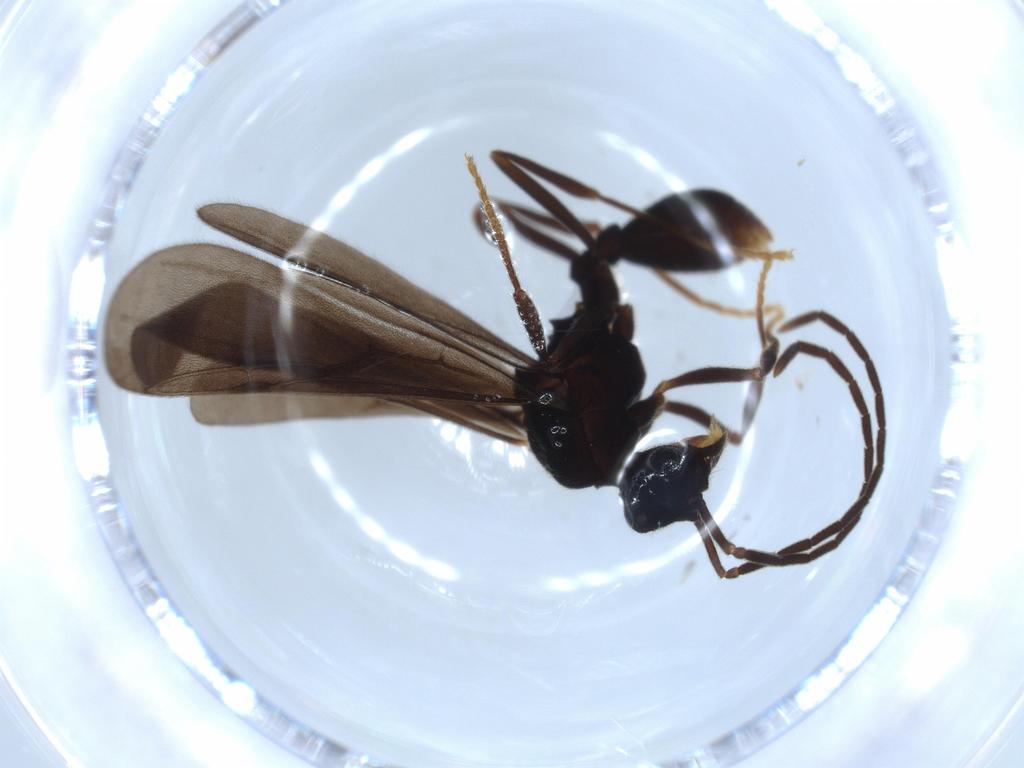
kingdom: Animalia
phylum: Arthropoda
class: Insecta
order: Hymenoptera
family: Formicidae
